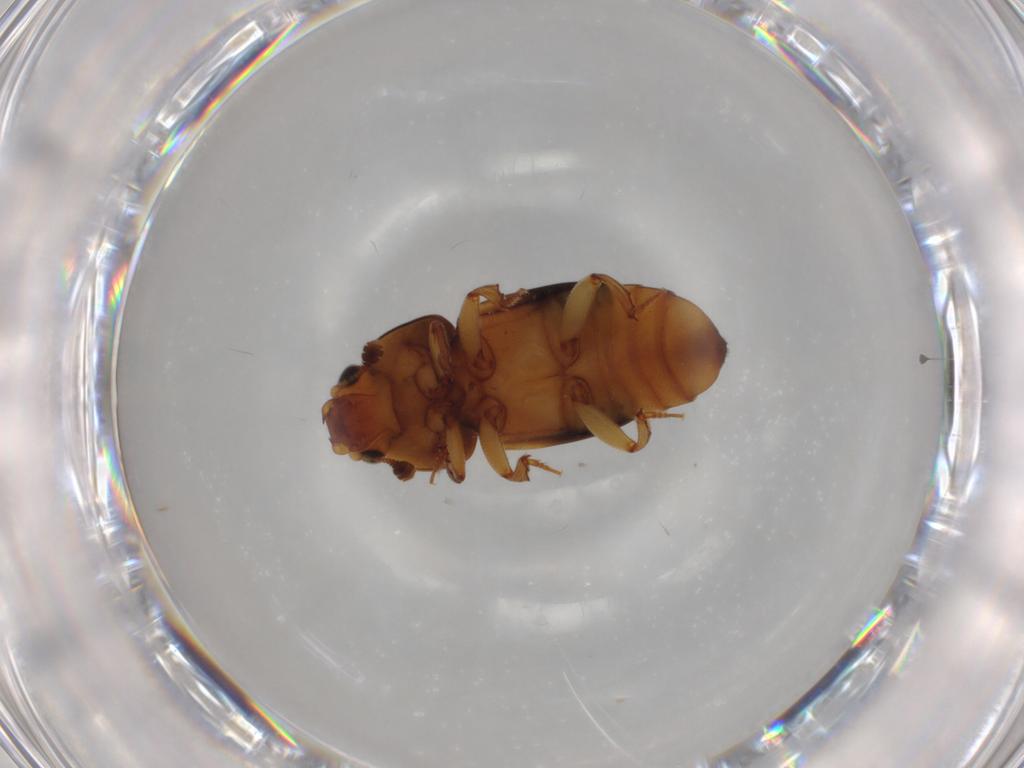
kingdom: Animalia
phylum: Arthropoda
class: Insecta
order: Coleoptera
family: Nitidulidae
